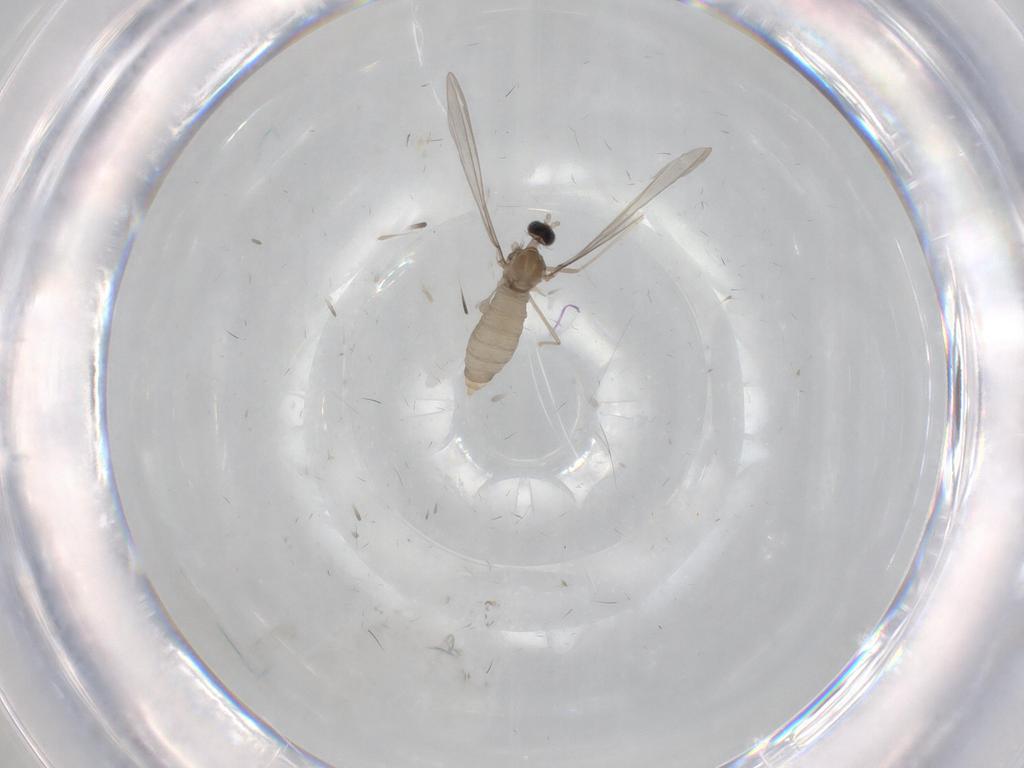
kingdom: Animalia
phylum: Arthropoda
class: Insecta
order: Diptera
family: Cecidomyiidae
